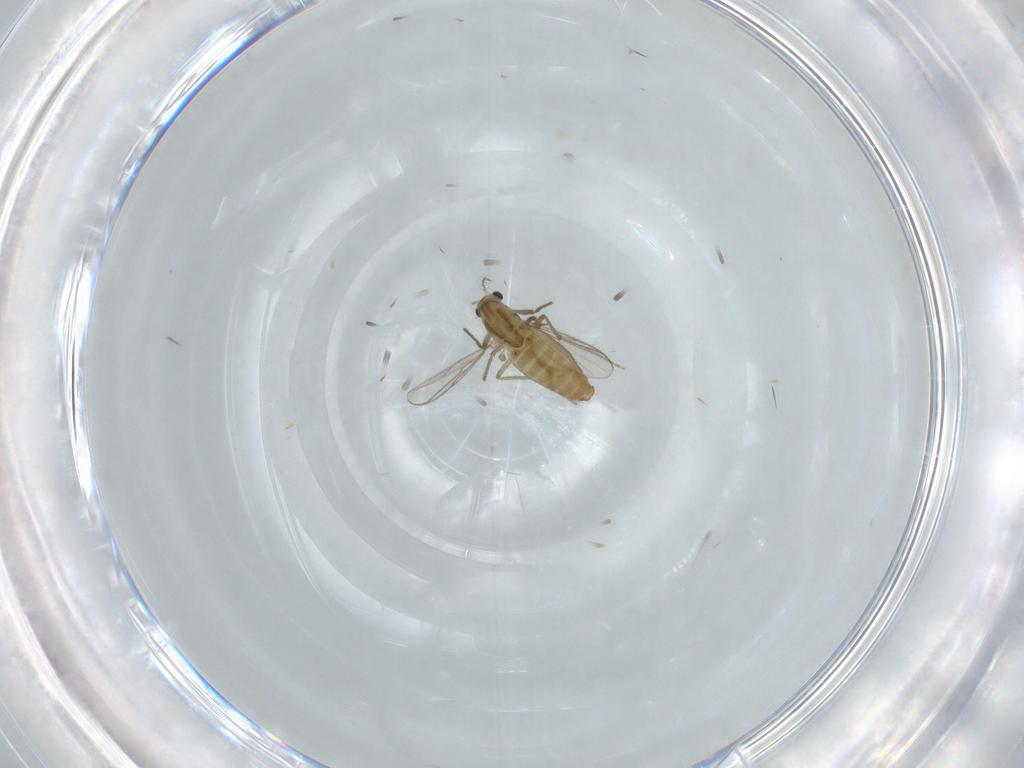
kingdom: Animalia
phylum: Arthropoda
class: Insecta
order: Diptera
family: Chironomidae
